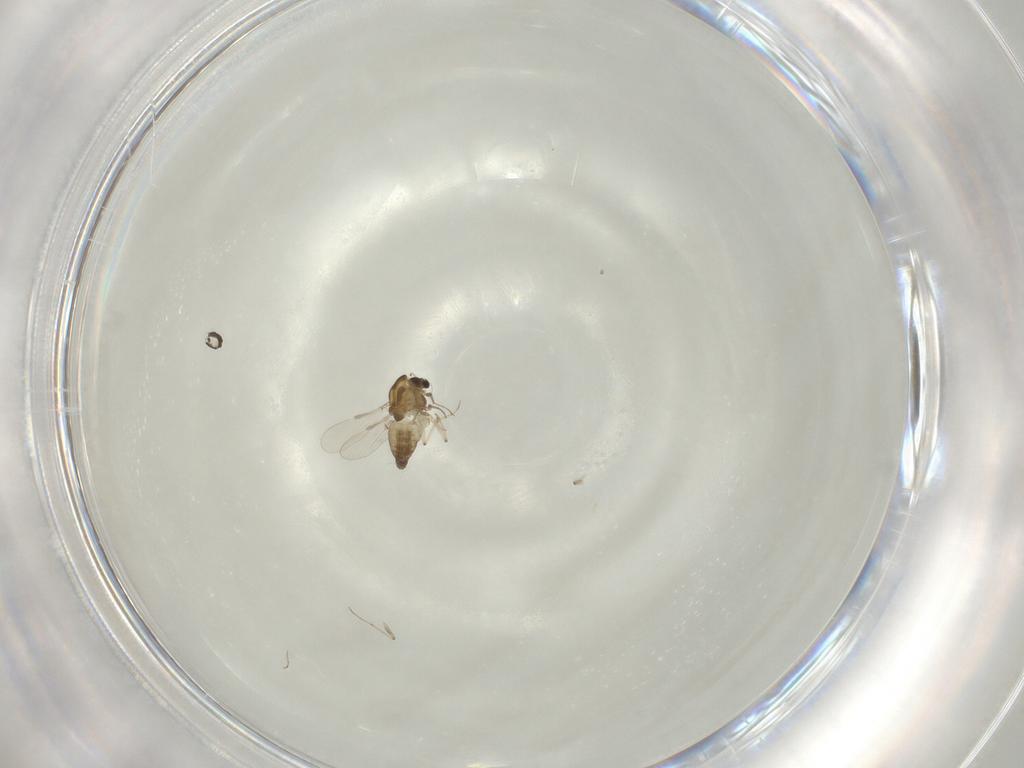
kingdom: Animalia
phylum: Arthropoda
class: Insecta
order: Diptera
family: Chironomidae
